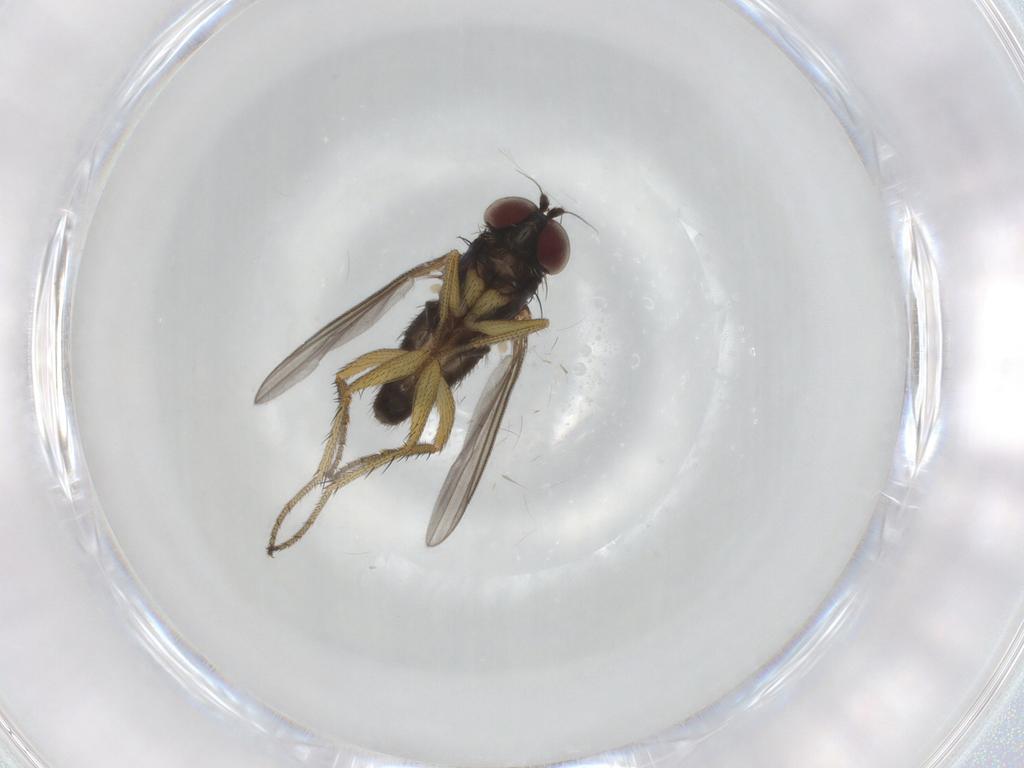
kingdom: Animalia
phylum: Arthropoda
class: Insecta
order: Diptera
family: Dolichopodidae
